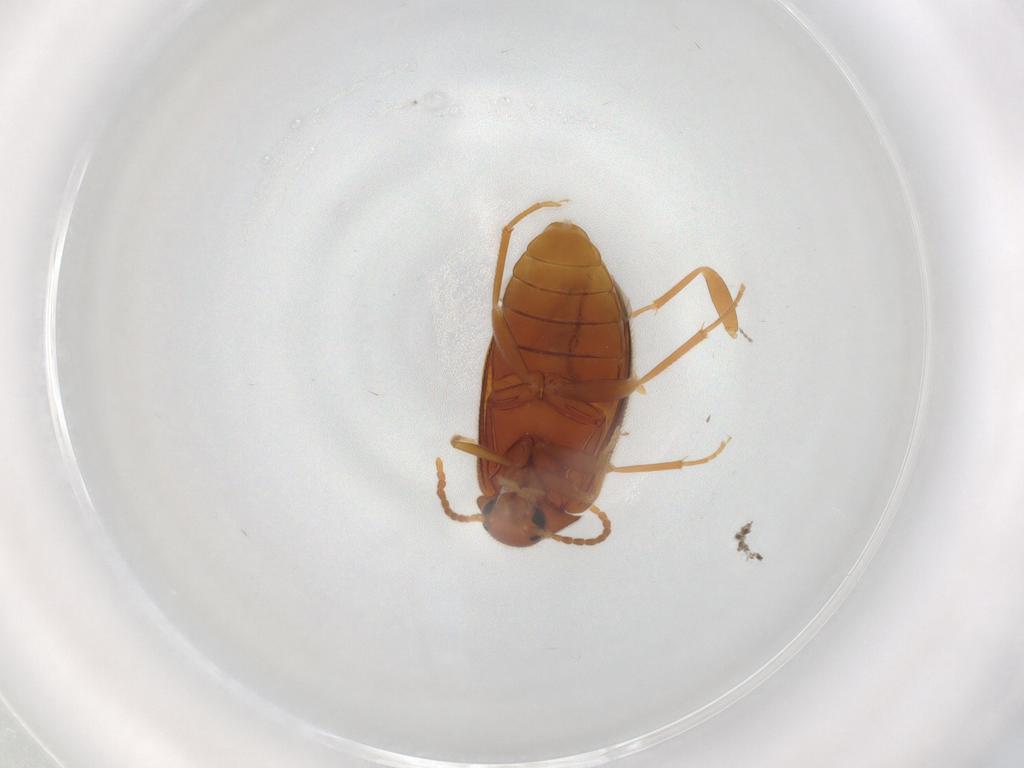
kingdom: Animalia
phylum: Arthropoda
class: Insecta
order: Coleoptera
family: Scraptiidae
